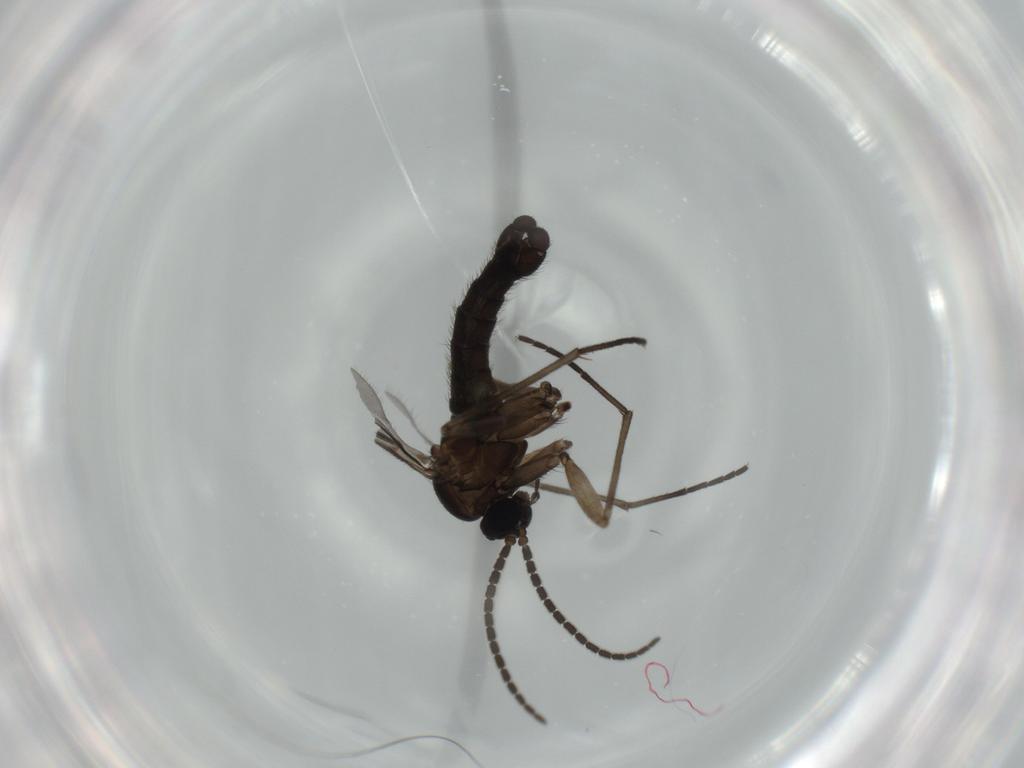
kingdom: Animalia
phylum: Arthropoda
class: Insecta
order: Diptera
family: Sciaridae
